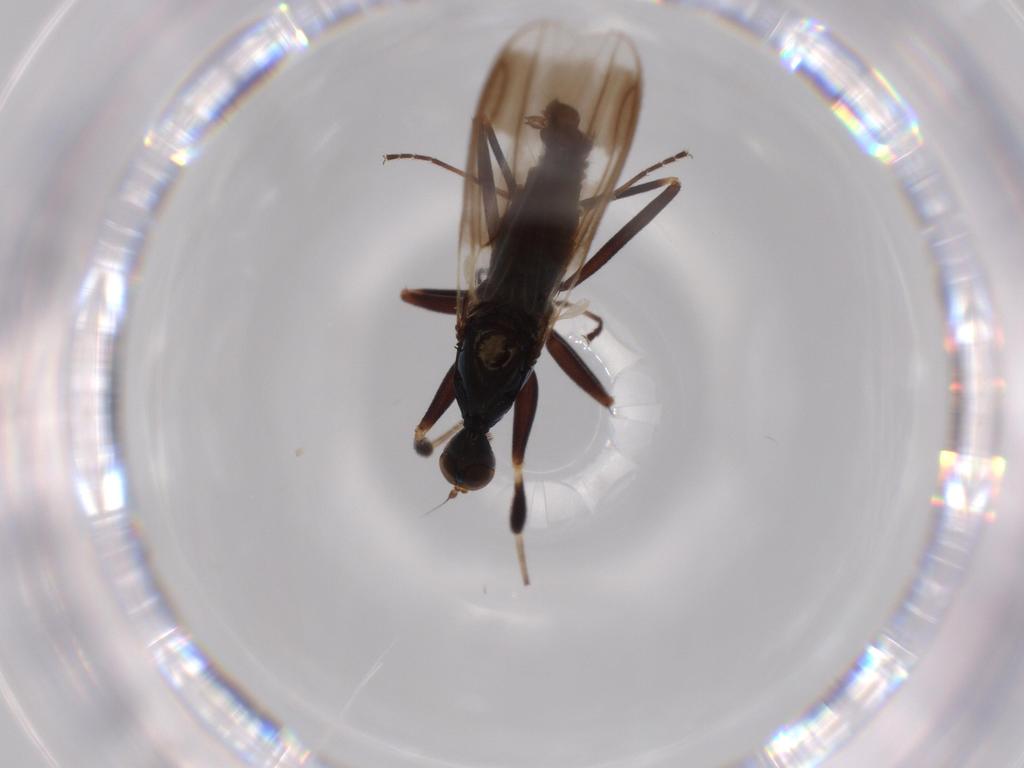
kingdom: Animalia
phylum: Arthropoda
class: Insecta
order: Diptera
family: Hybotidae
